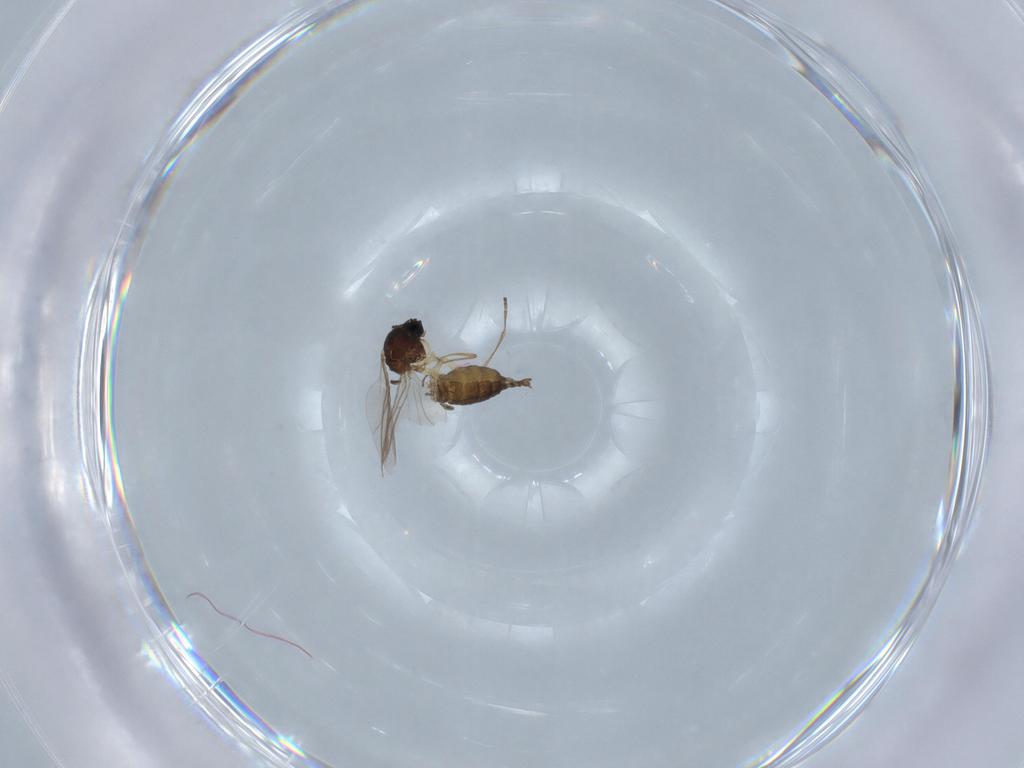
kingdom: Animalia
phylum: Arthropoda
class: Insecta
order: Diptera
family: Sciaridae
